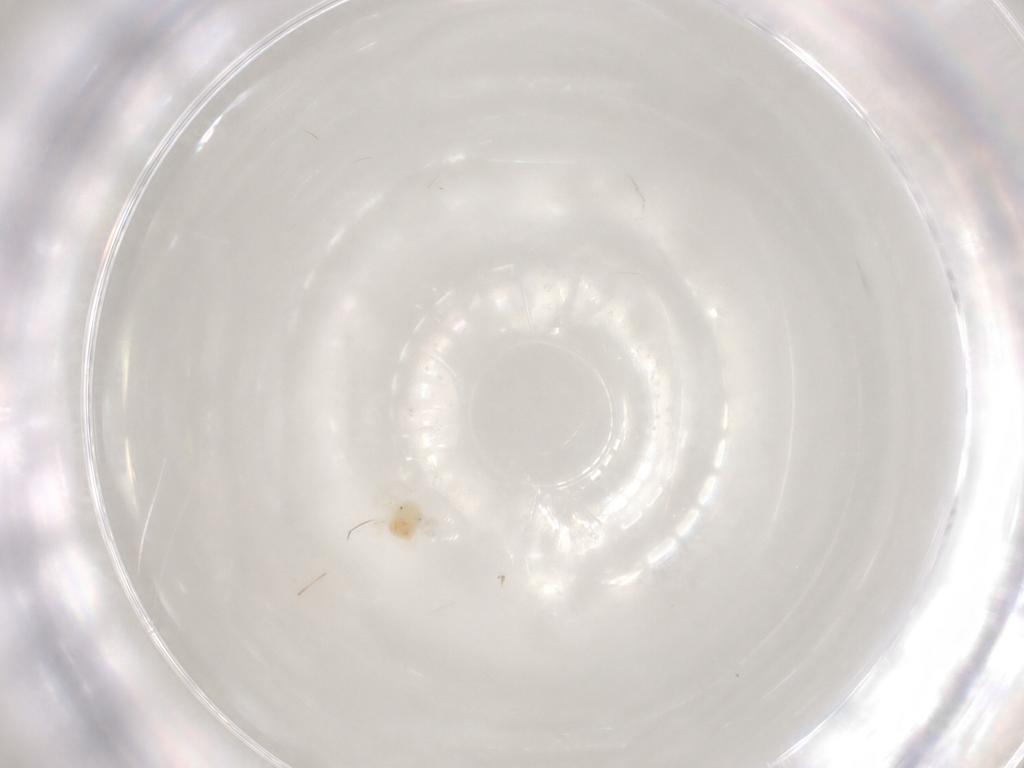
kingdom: Animalia
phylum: Arthropoda
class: Arachnida
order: Trombidiformes
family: Anystidae
